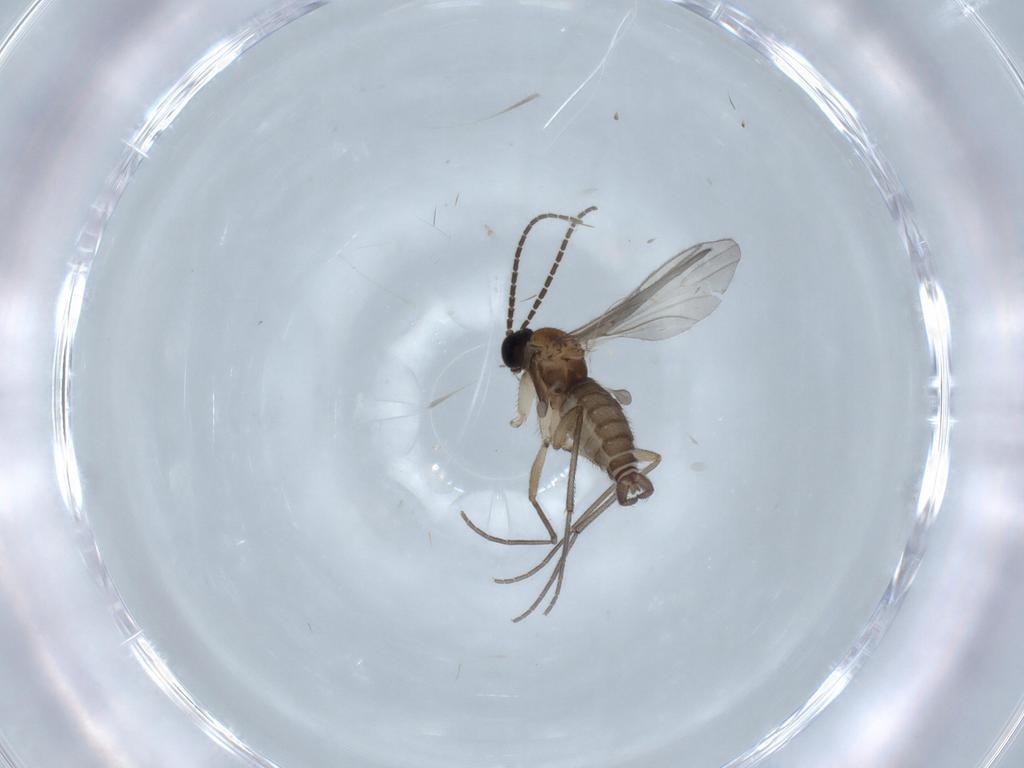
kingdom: Animalia
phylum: Arthropoda
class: Insecta
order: Diptera
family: Sciaridae
